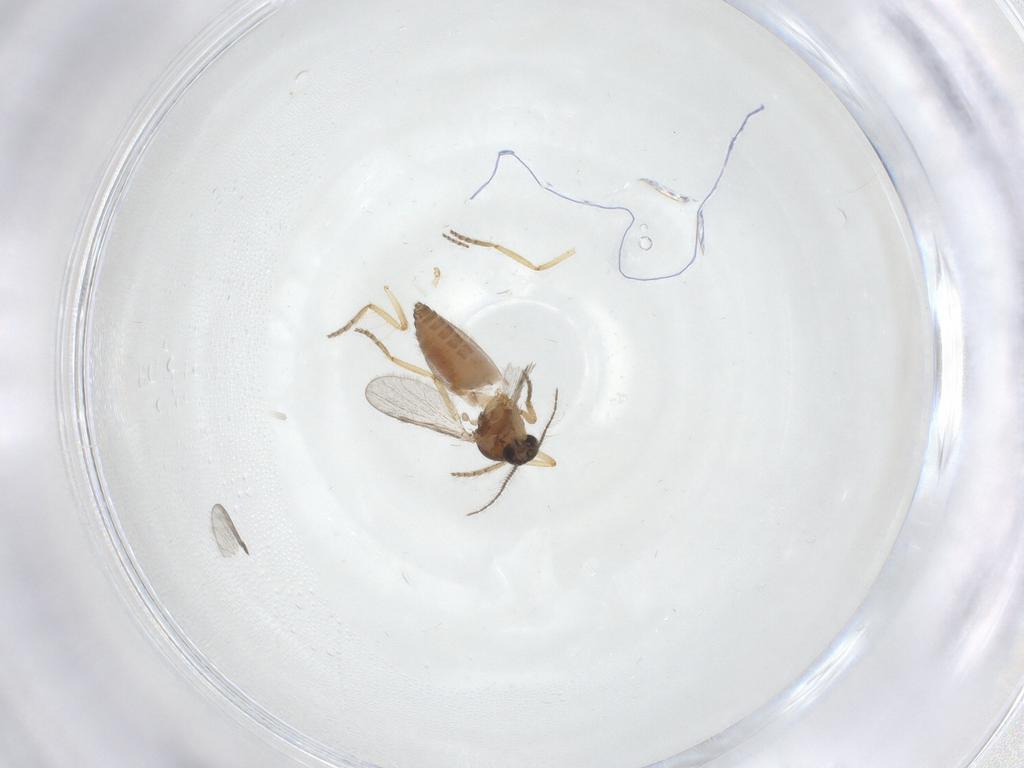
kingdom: Animalia
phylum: Arthropoda
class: Insecta
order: Diptera
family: Ceratopogonidae
